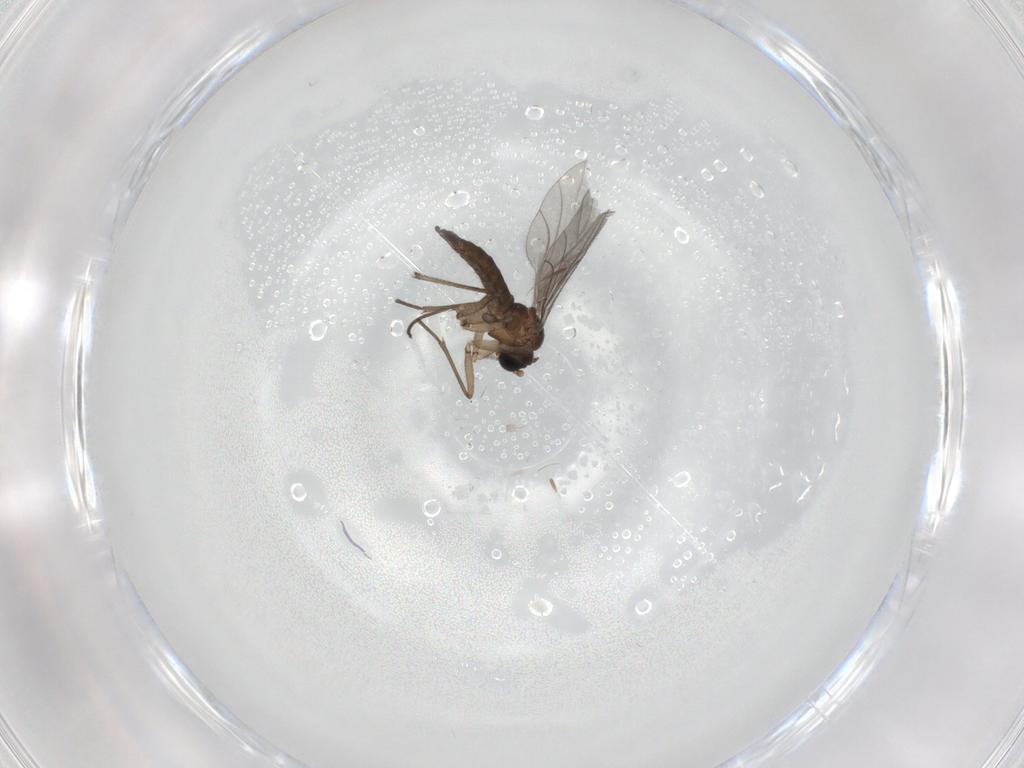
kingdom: Animalia
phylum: Arthropoda
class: Insecta
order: Diptera
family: Sciaridae
